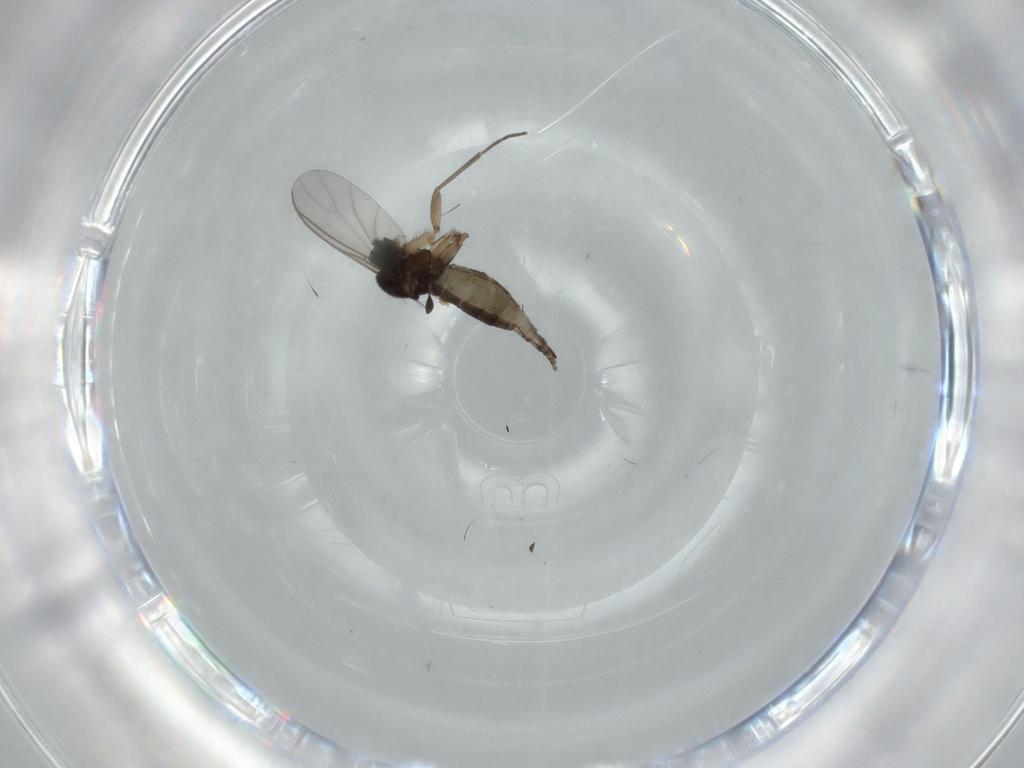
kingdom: Animalia
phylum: Arthropoda
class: Insecta
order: Diptera
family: Sciaridae
